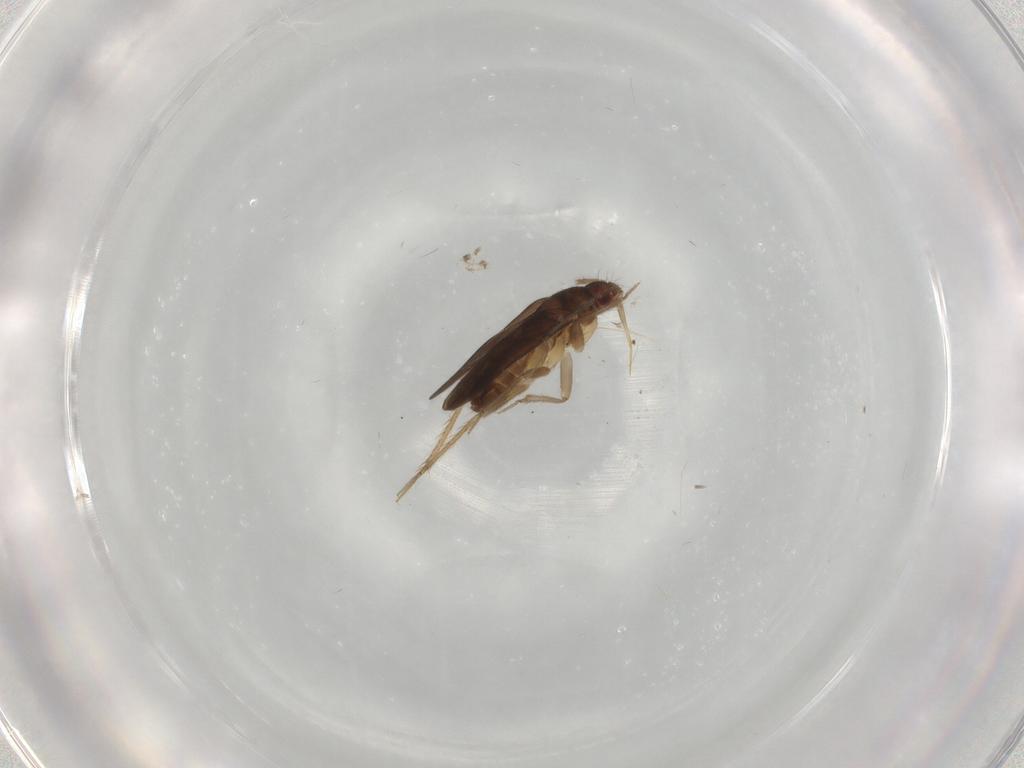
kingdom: Animalia
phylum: Arthropoda
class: Insecta
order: Hemiptera
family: Ceratocombidae
